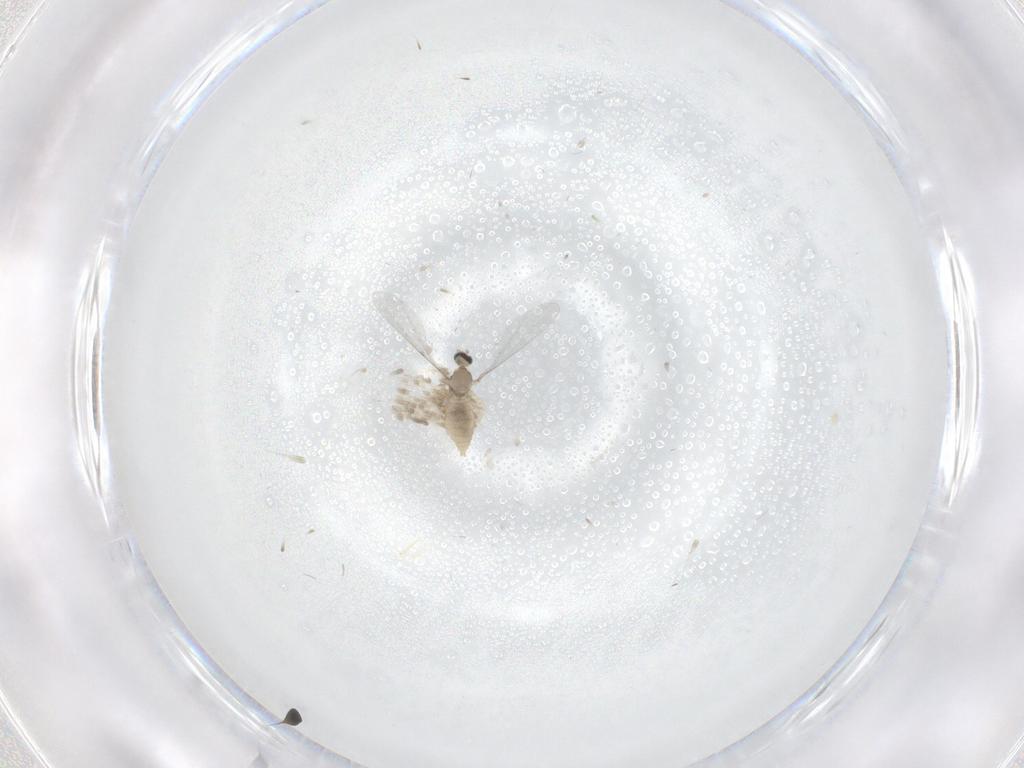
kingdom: Animalia
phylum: Arthropoda
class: Insecta
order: Diptera
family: Cecidomyiidae
